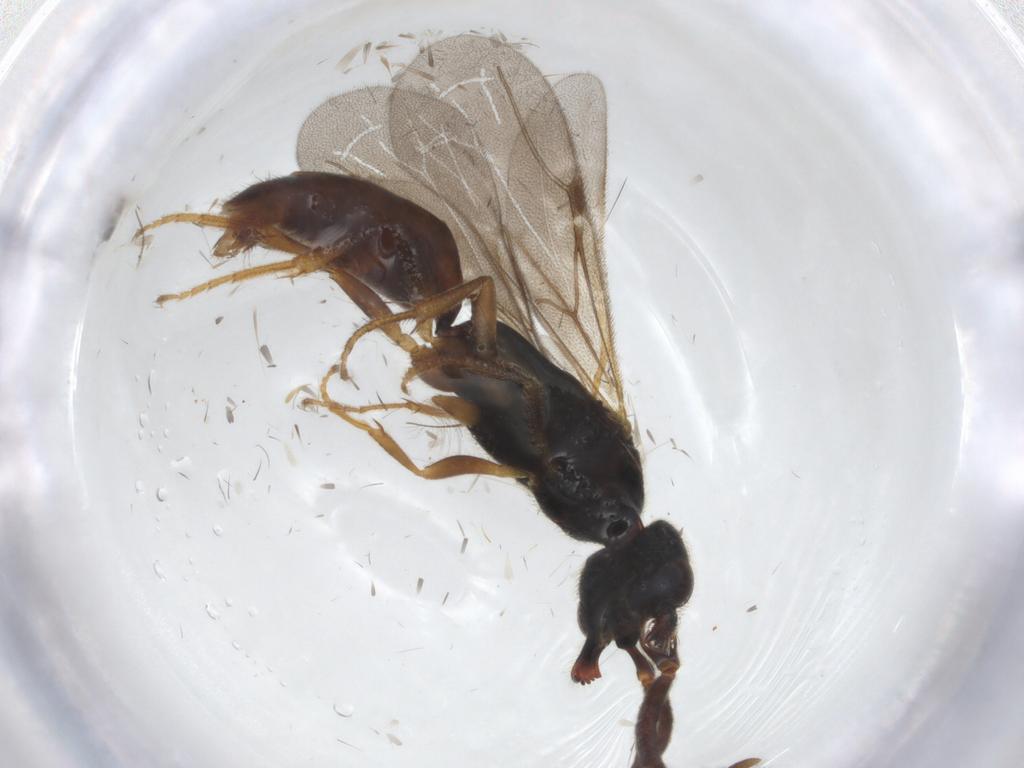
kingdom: Animalia
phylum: Arthropoda
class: Insecta
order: Hymenoptera
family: Bethylidae
